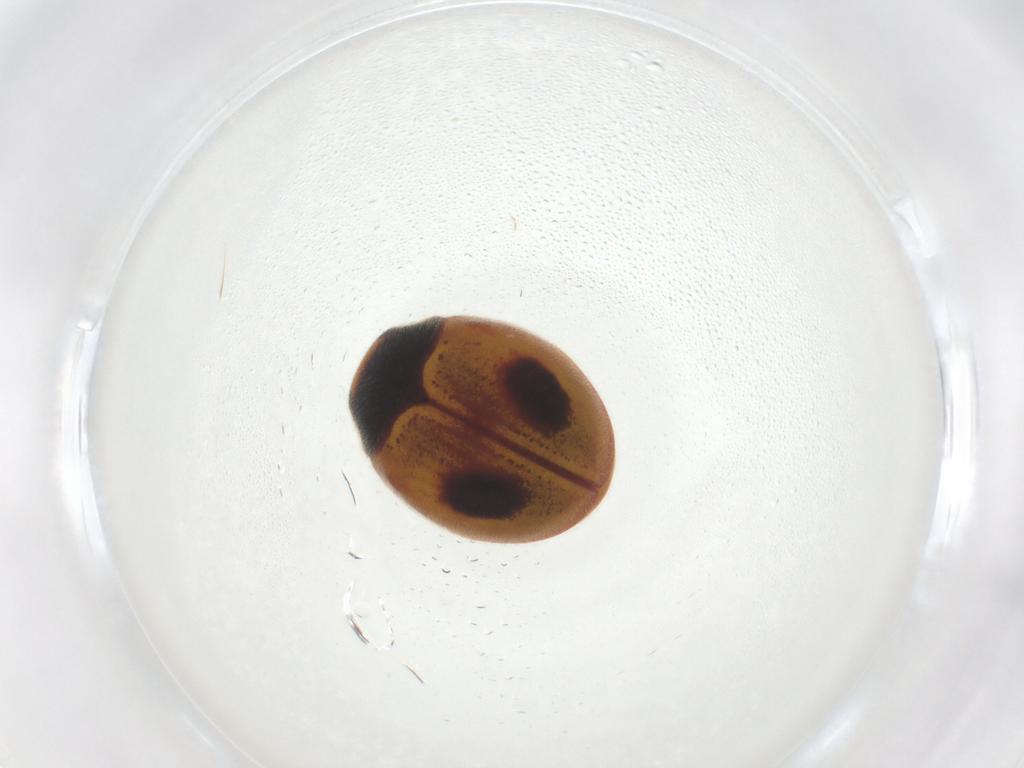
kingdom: Animalia
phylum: Arthropoda
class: Insecta
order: Coleoptera
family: Coccinellidae
